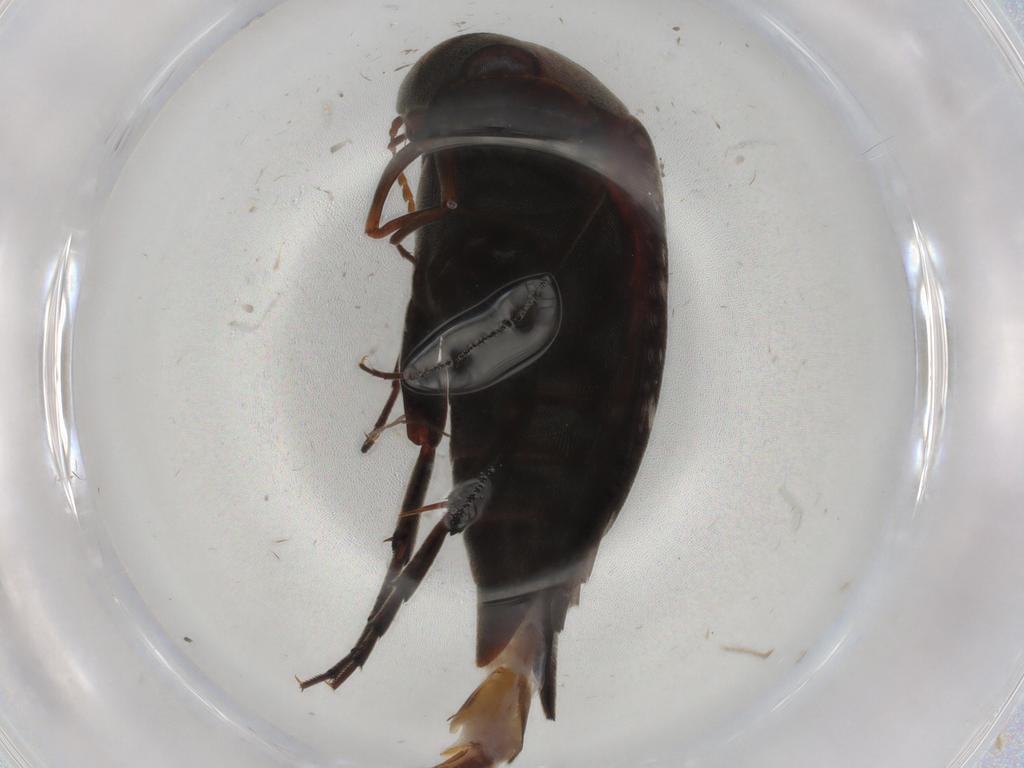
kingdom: Animalia
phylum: Arthropoda
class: Insecta
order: Coleoptera
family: Mordellidae
